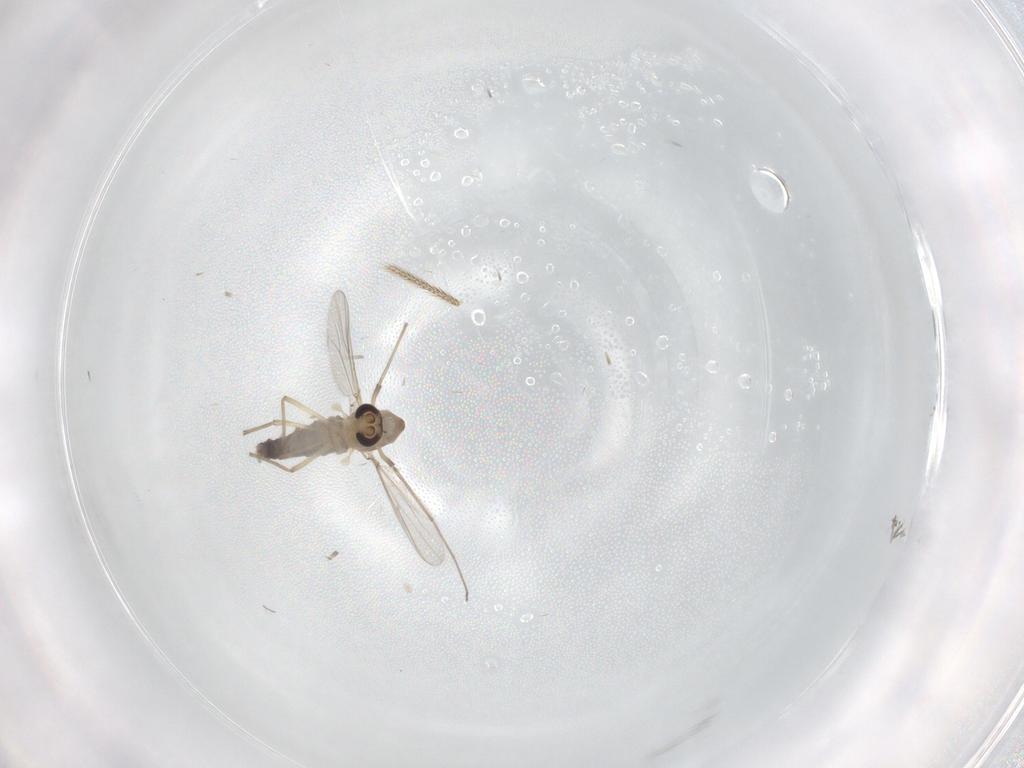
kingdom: Animalia
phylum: Arthropoda
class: Insecta
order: Diptera
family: Chironomidae
